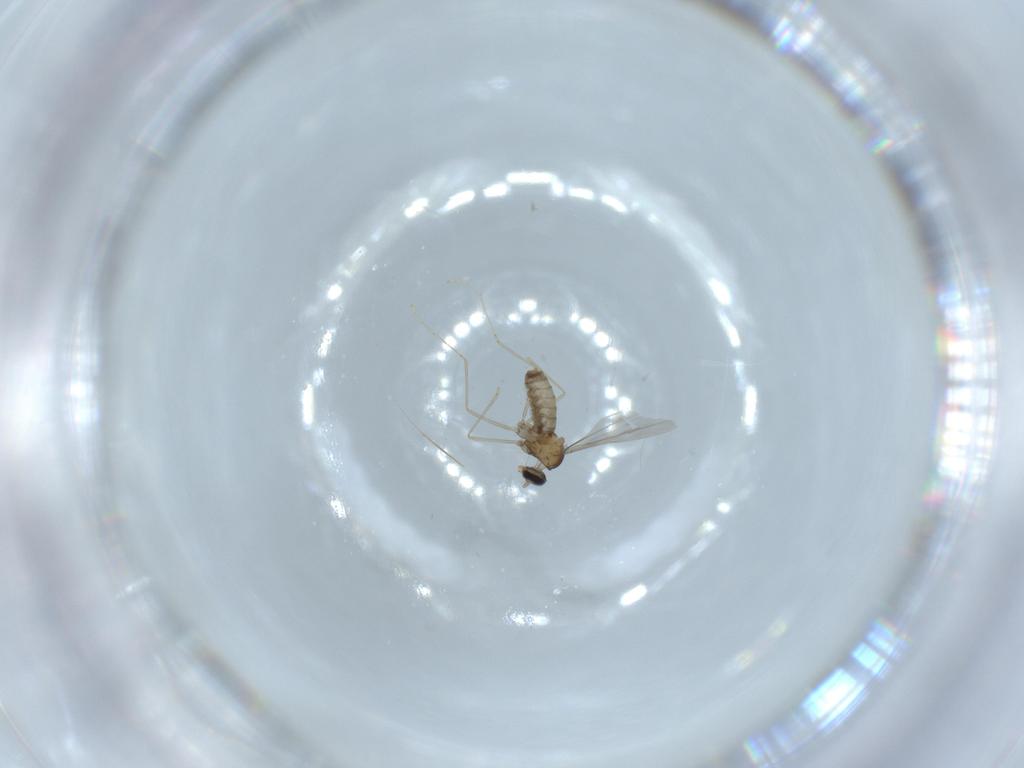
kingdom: Animalia
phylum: Arthropoda
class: Insecta
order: Diptera
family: Cecidomyiidae
